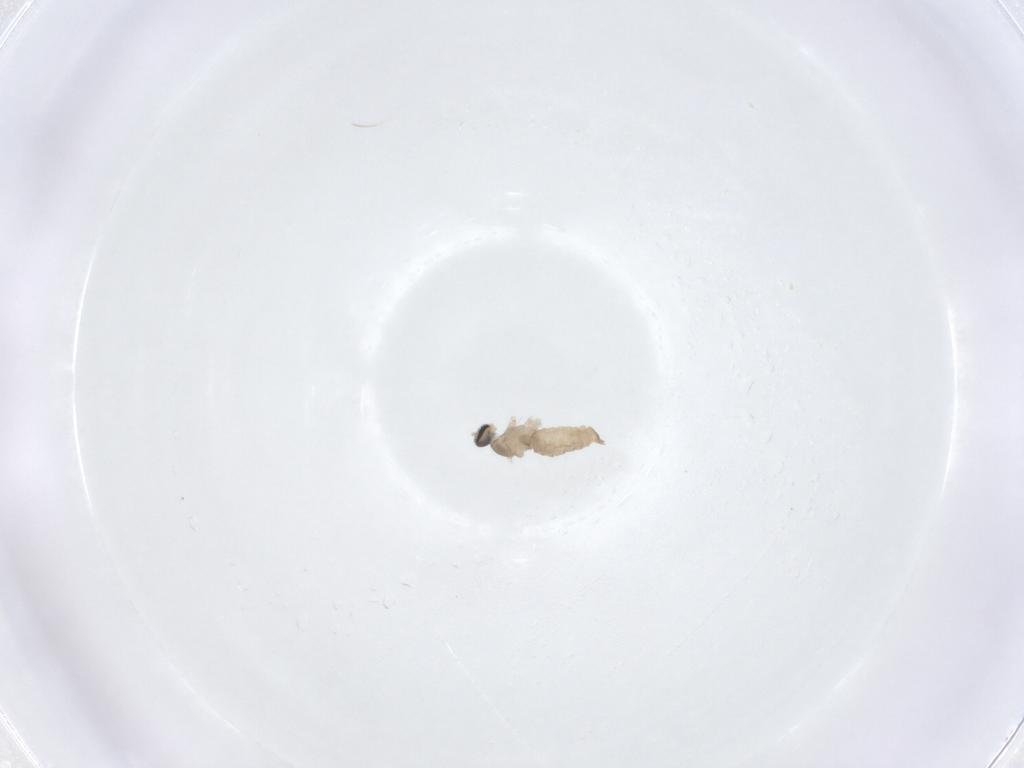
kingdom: Animalia
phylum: Arthropoda
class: Insecta
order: Diptera
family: Cecidomyiidae
